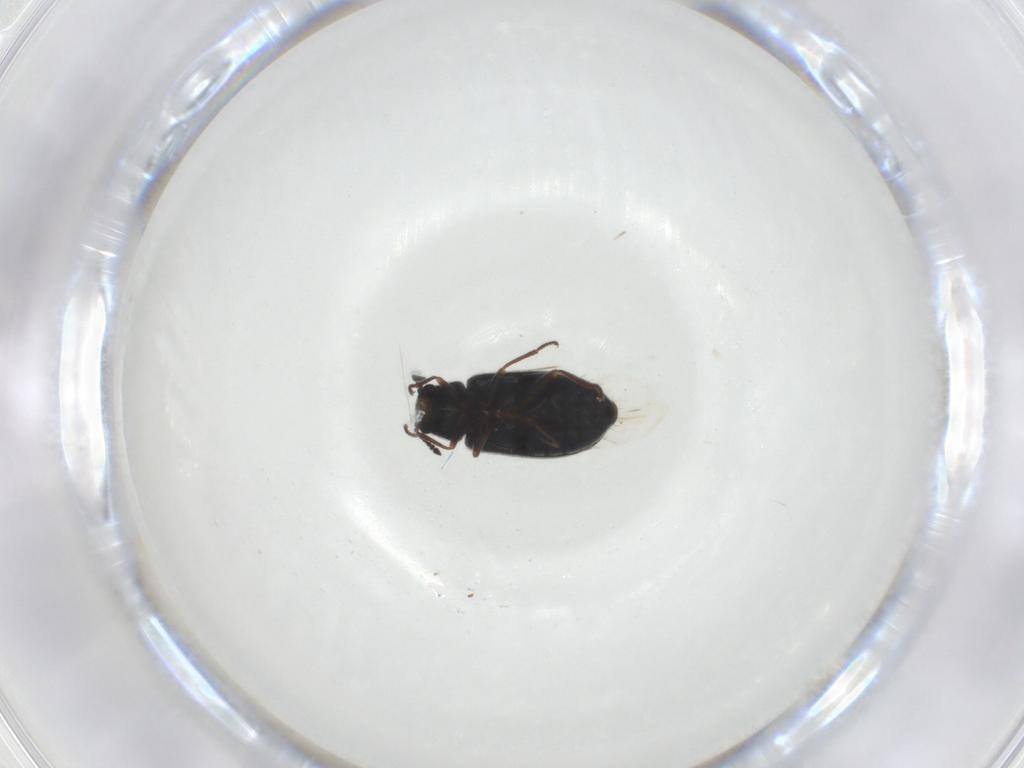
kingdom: Animalia
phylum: Arthropoda
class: Insecta
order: Coleoptera
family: Melyridae
